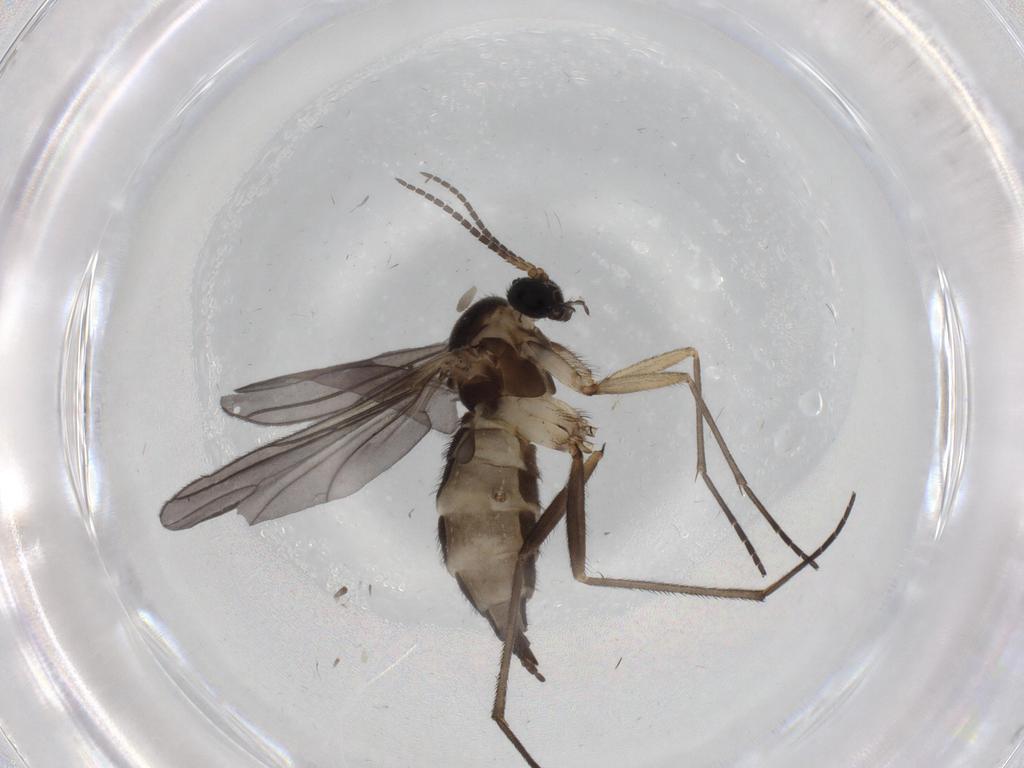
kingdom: Animalia
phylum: Arthropoda
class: Insecta
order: Diptera
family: Sciaridae
